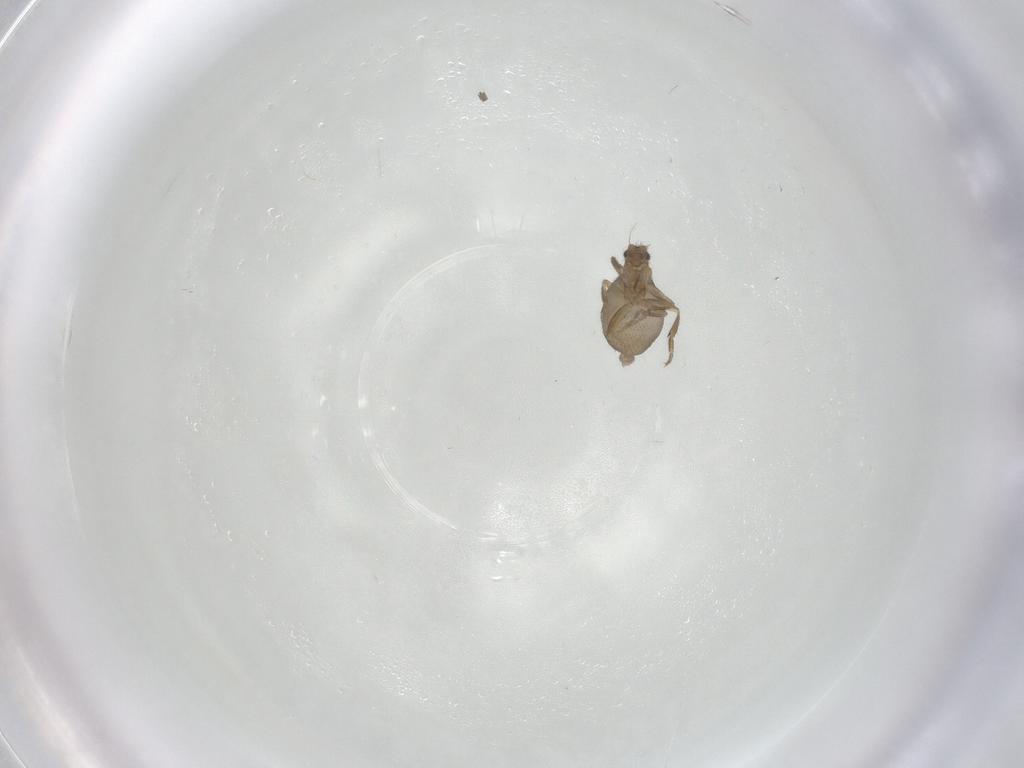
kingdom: Animalia
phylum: Arthropoda
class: Insecta
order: Diptera
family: Phoridae
